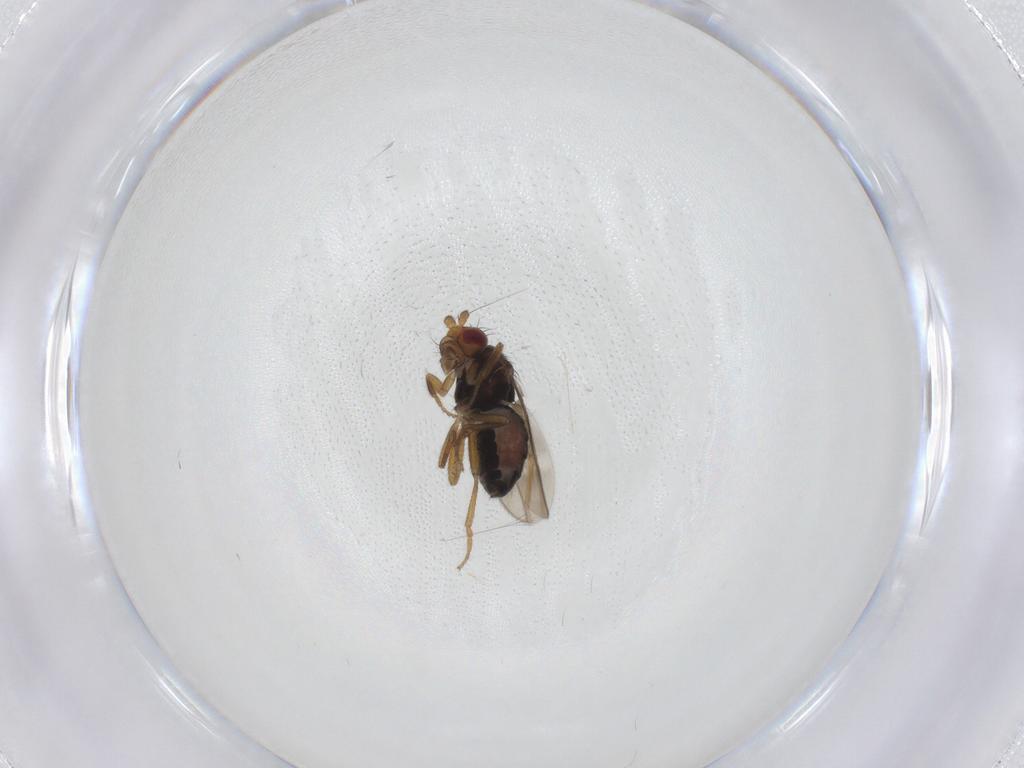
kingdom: Animalia
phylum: Arthropoda
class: Insecta
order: Diptera
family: Sphaeroceridae
